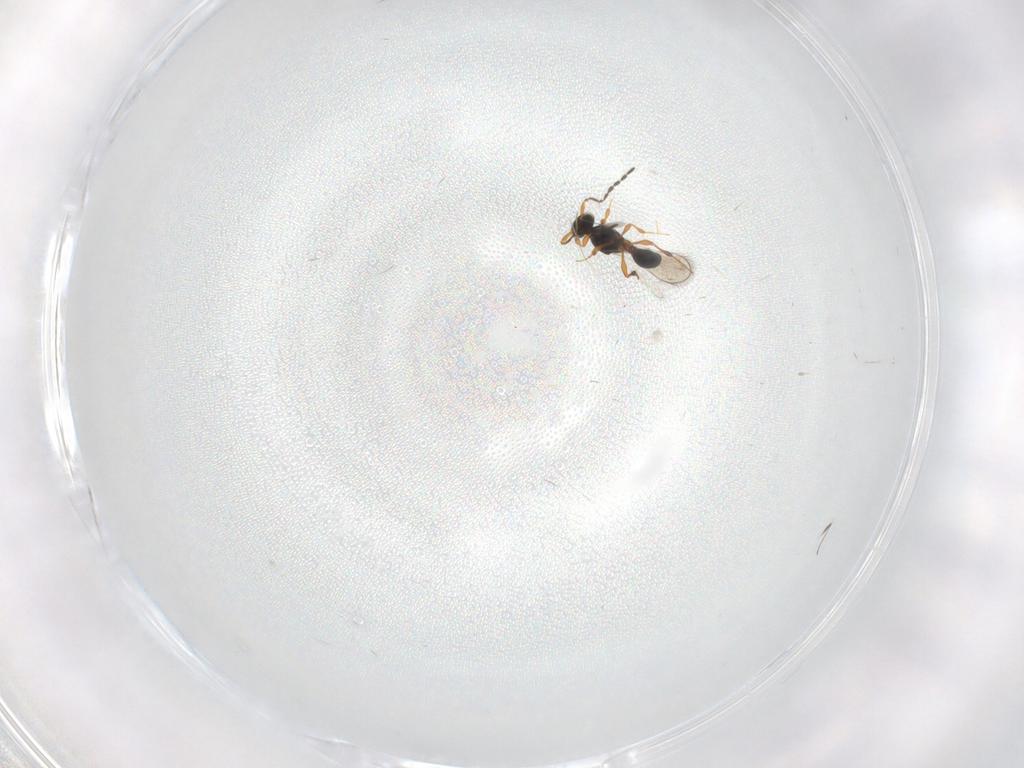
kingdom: Animalia
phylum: Arthropoda
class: Insecta
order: Hymenoptera
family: Platygastridae
